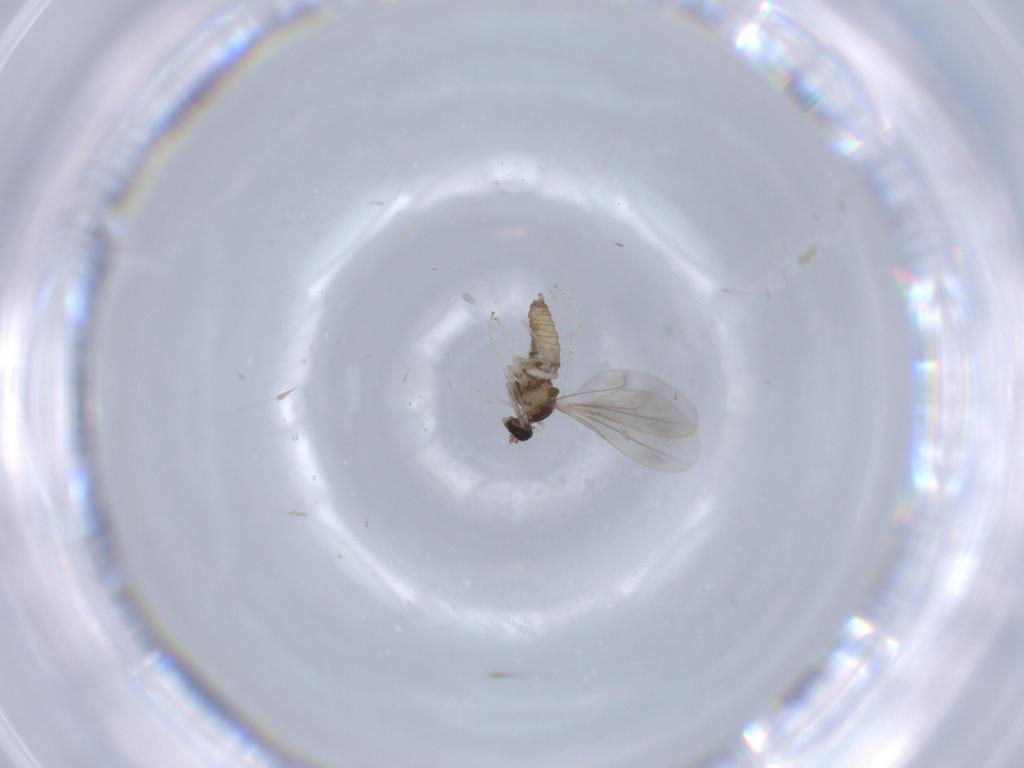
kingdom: Animalia
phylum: Arthropoda
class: Insecta
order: Diptera
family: Cecidomyiidae
